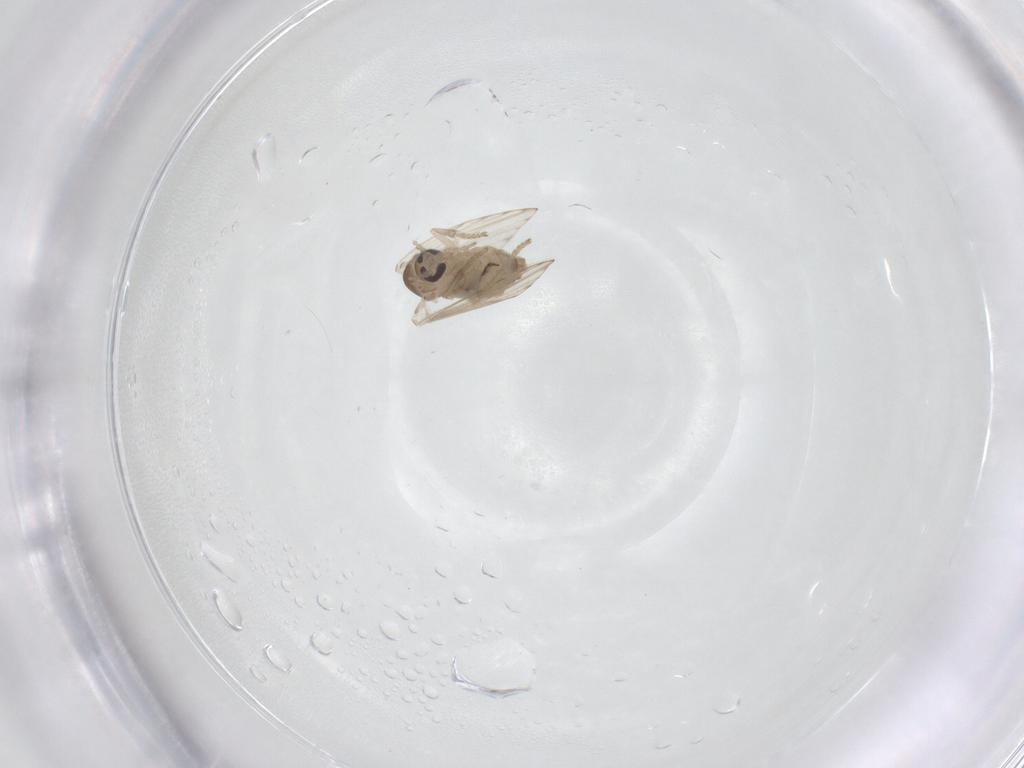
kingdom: Animalia
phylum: Arthropoda
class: Insecta
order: Diptera
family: Psychodidae
